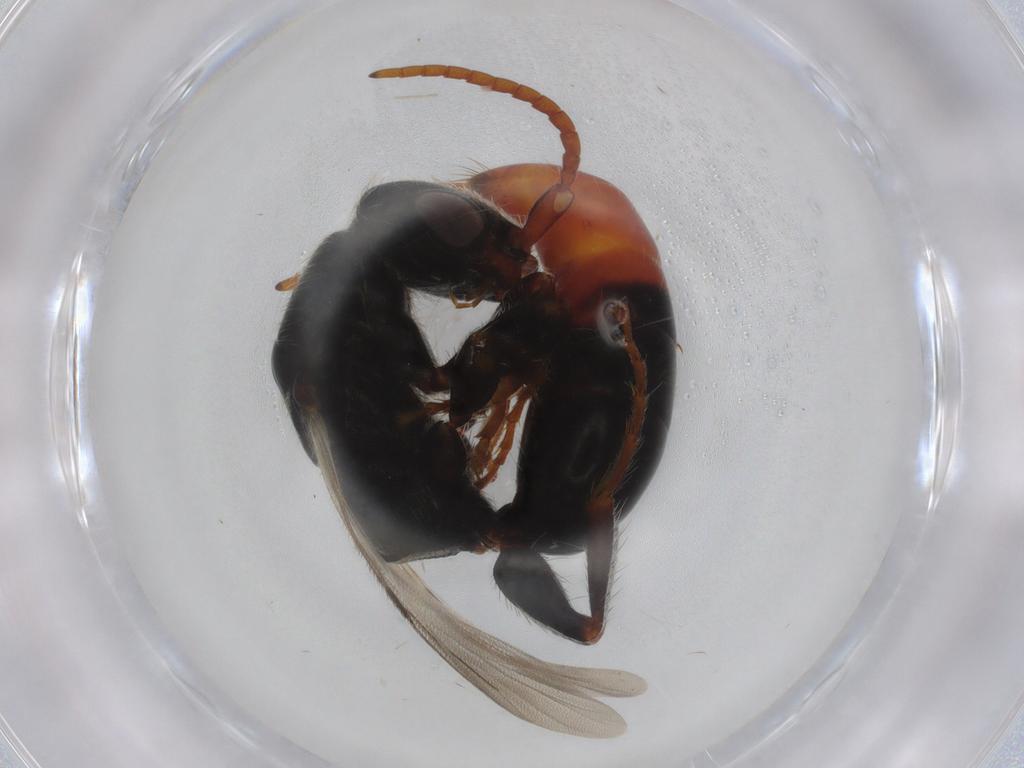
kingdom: Animalia
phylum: Arthropoda
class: Insecta
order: Hymenoptera
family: Bethylidae
